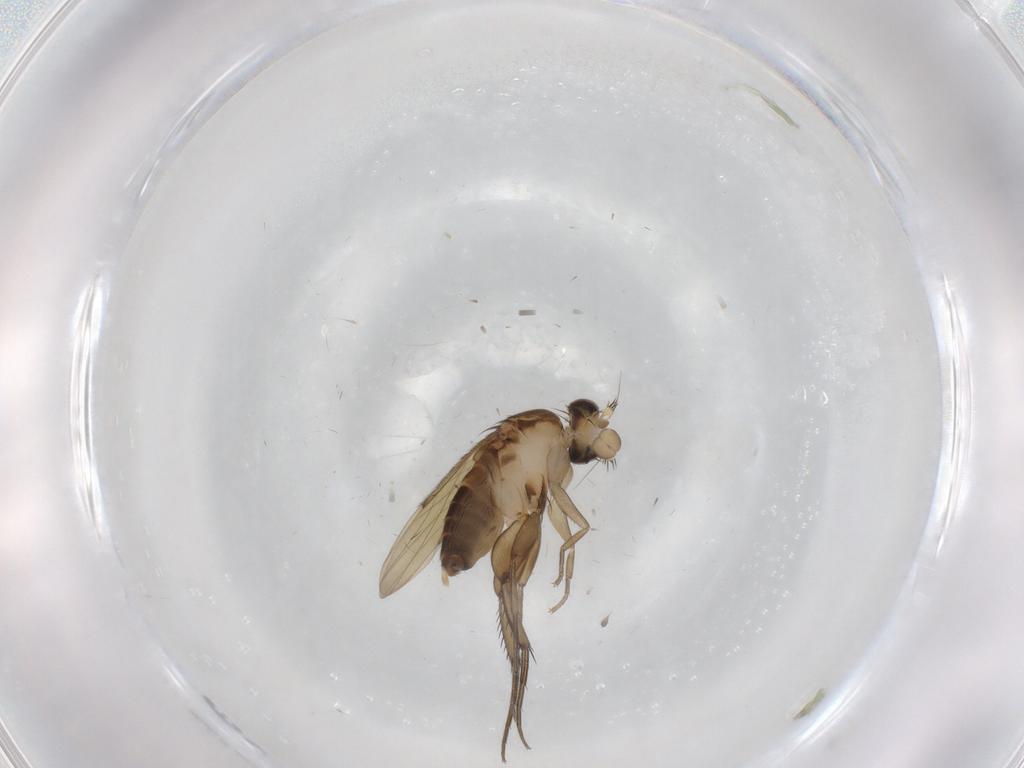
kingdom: Animalia
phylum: Arthropoda
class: Insecta
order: Diptera
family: Phoridae
